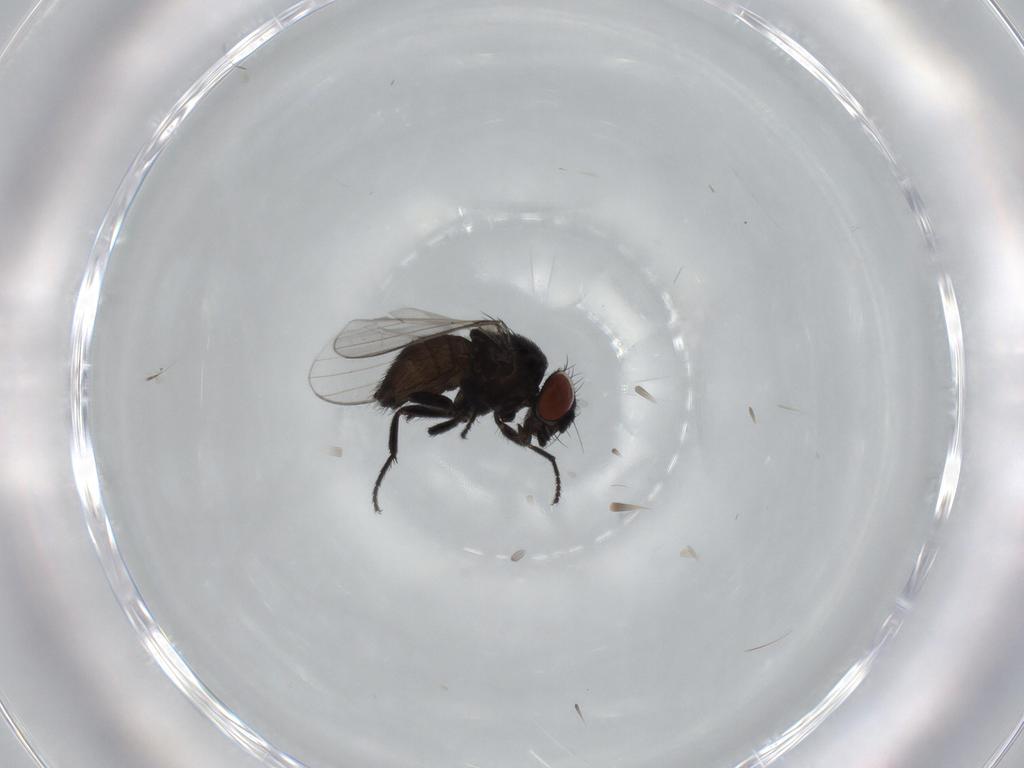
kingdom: Animalia
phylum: Arthropoda
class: Insecta
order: Diptera
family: Milichiidae
